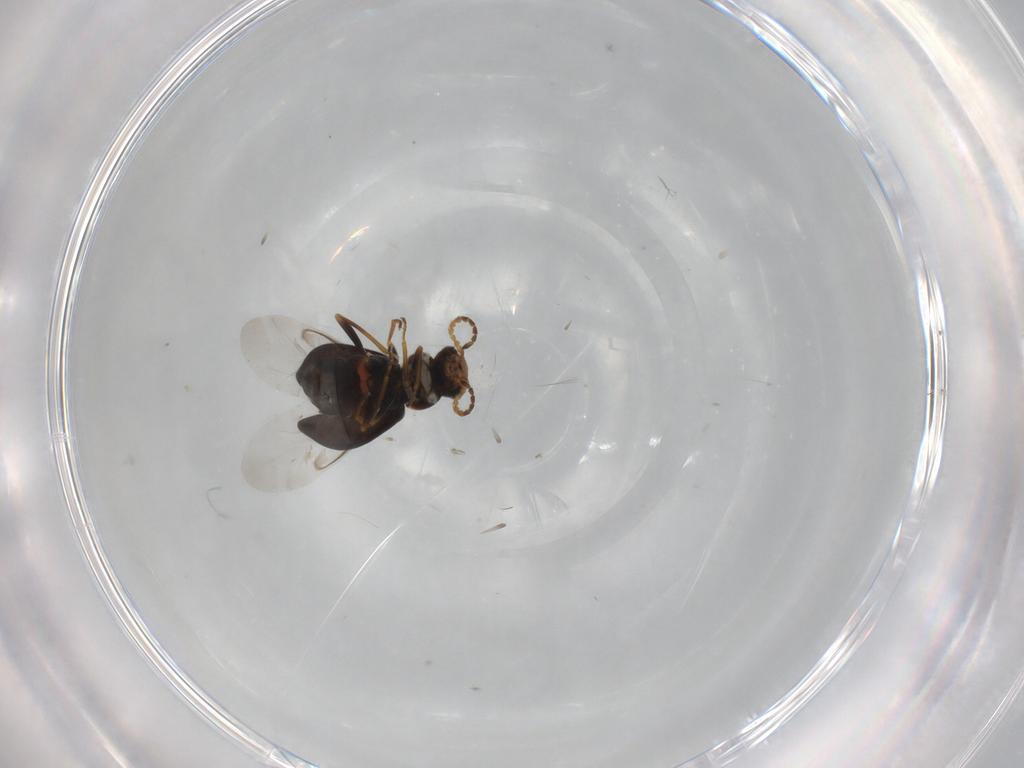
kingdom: Animalia
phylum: Arthropoda
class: Insecta
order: Coleoptera
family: Melyridae
